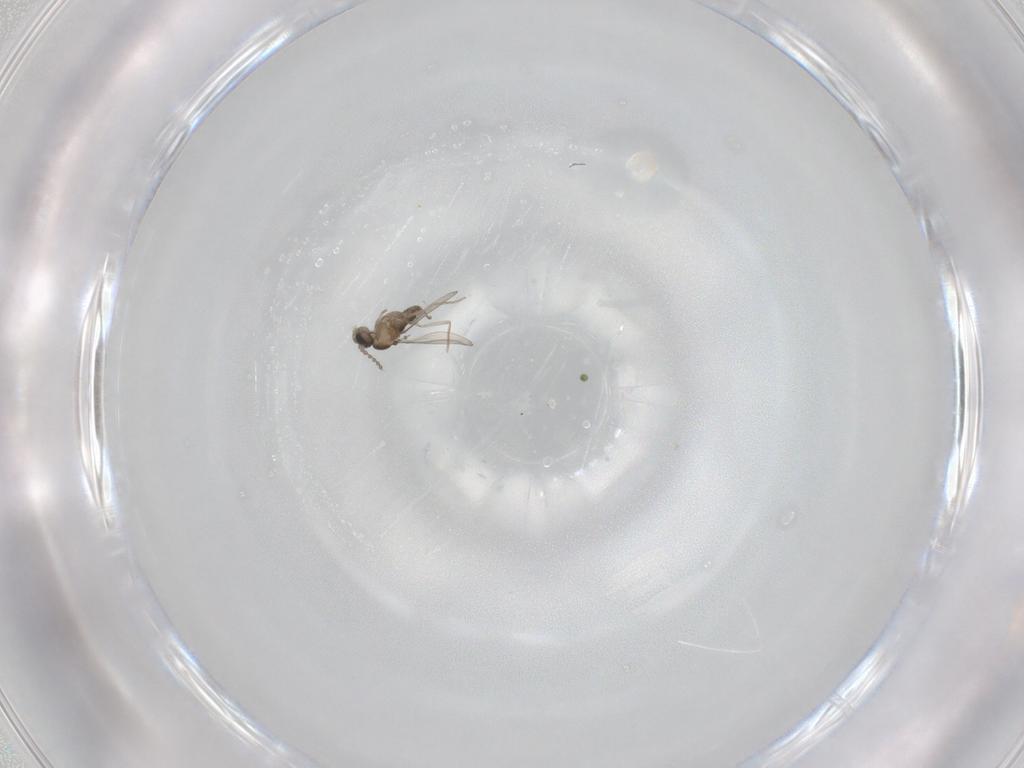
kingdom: Animalia
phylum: Arthropoda
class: Insecta
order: Diptera
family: Cecidomyiidae
